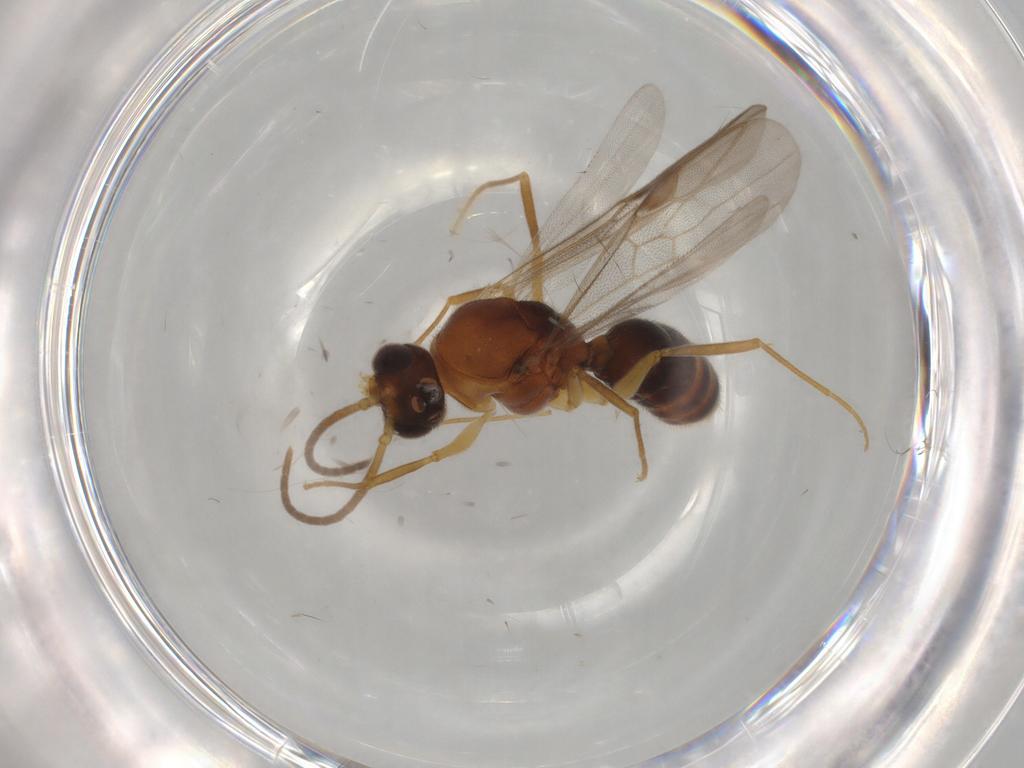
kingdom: Animalia
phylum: Arthropoda
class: Insecta
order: Hymenoptera
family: Formicidae
